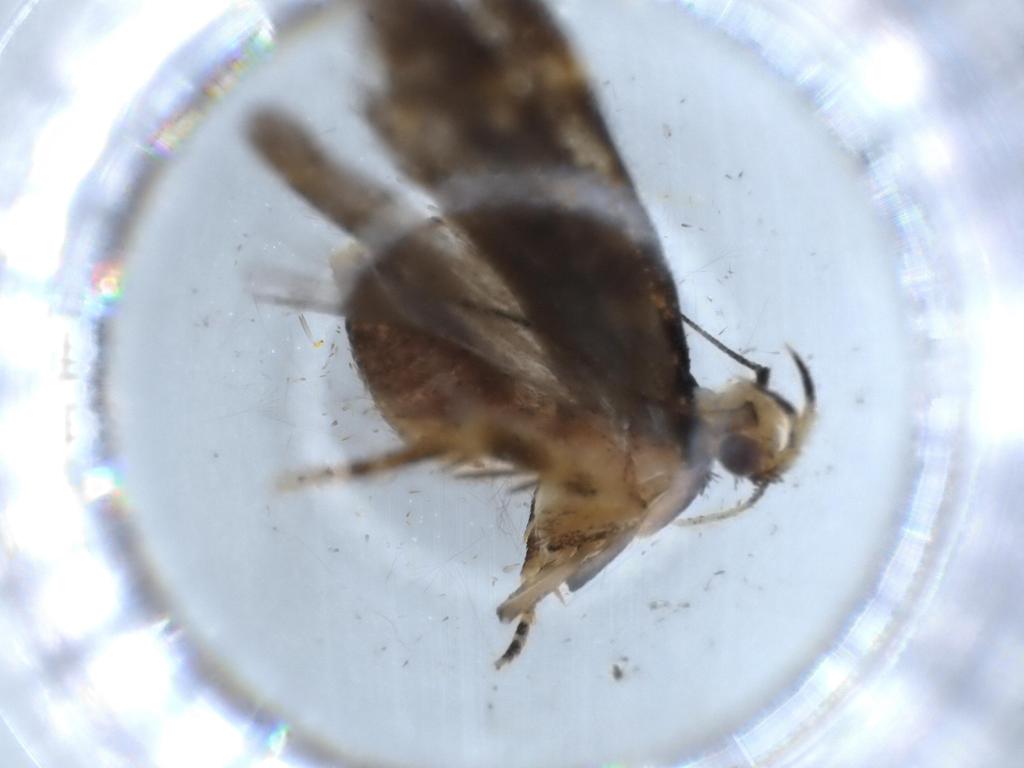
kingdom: Animalia
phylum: Arthropoda
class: Insecta
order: Lepidoptera
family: Gelechiidae
